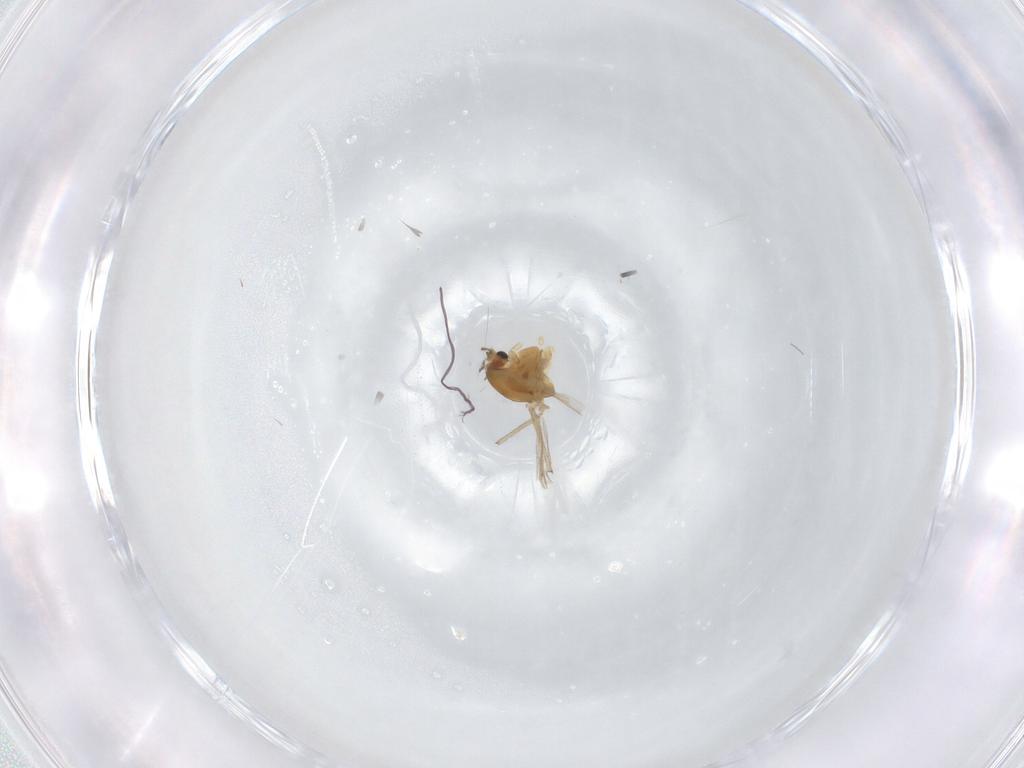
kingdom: Animalia
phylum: Arthropoda
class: Insecta
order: Diptera
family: Chironomidae
